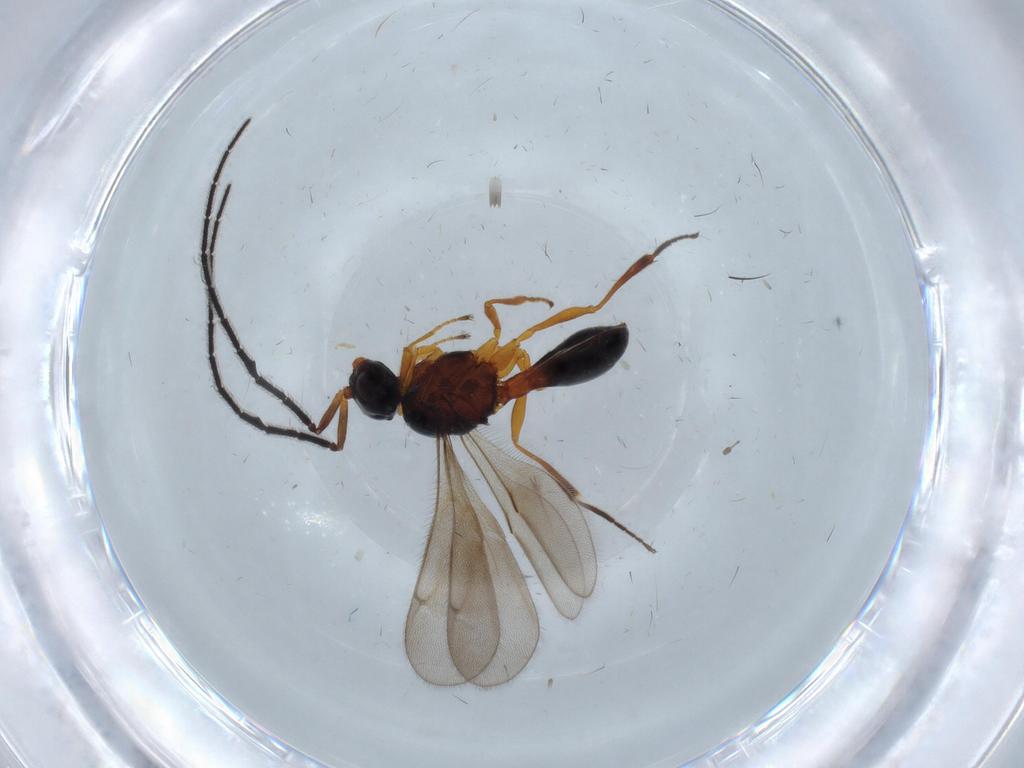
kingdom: Animalia
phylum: Arthropoda
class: Insecta
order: Hymenoptera
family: Scelionidae
